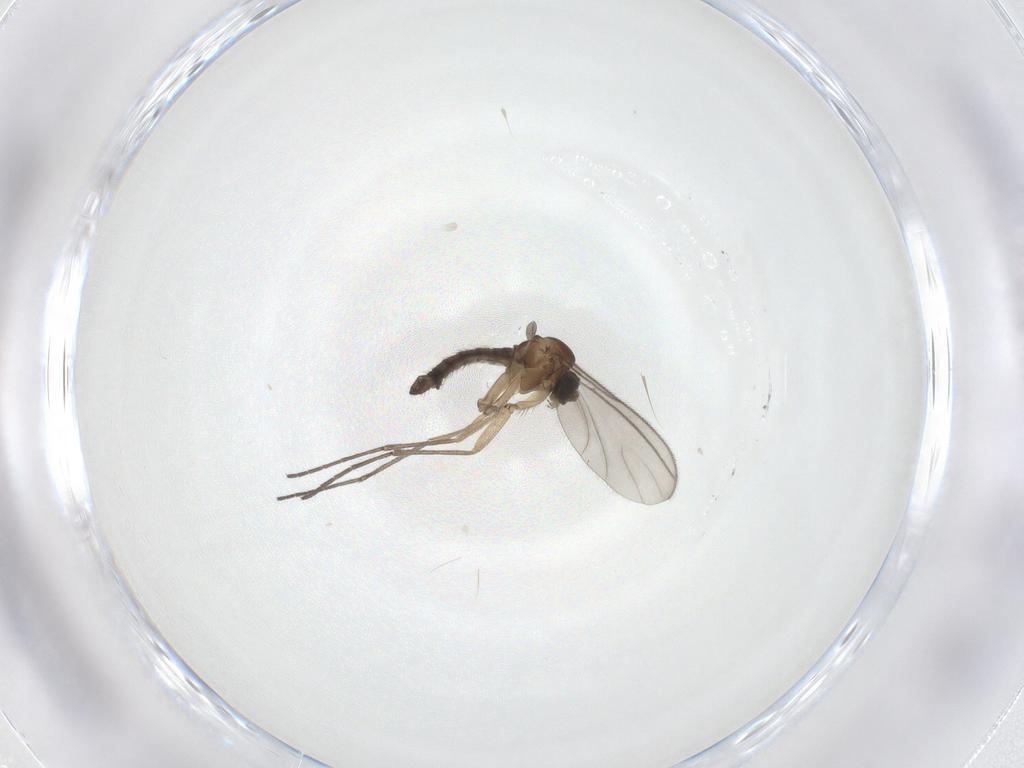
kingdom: Animalia
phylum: Arthropoda
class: Insecta
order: Diptera
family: Sciaridae
